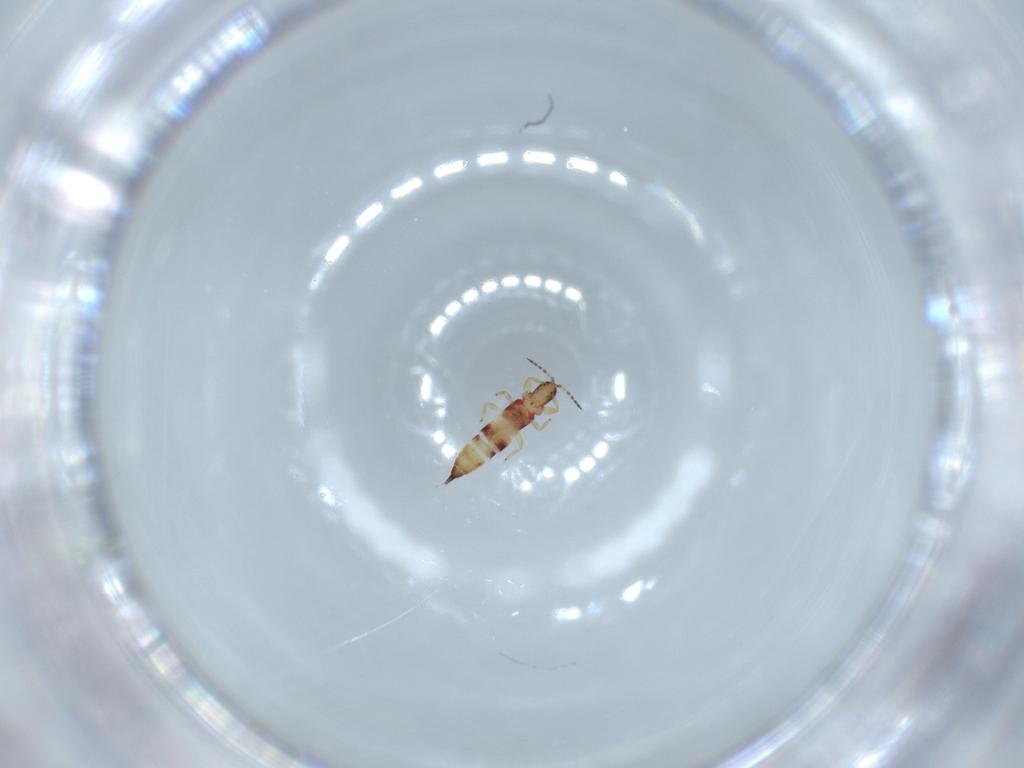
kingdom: Animalia
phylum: Arthropoda
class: Insecta
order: Thysanoptera
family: Phlaeothripidae
